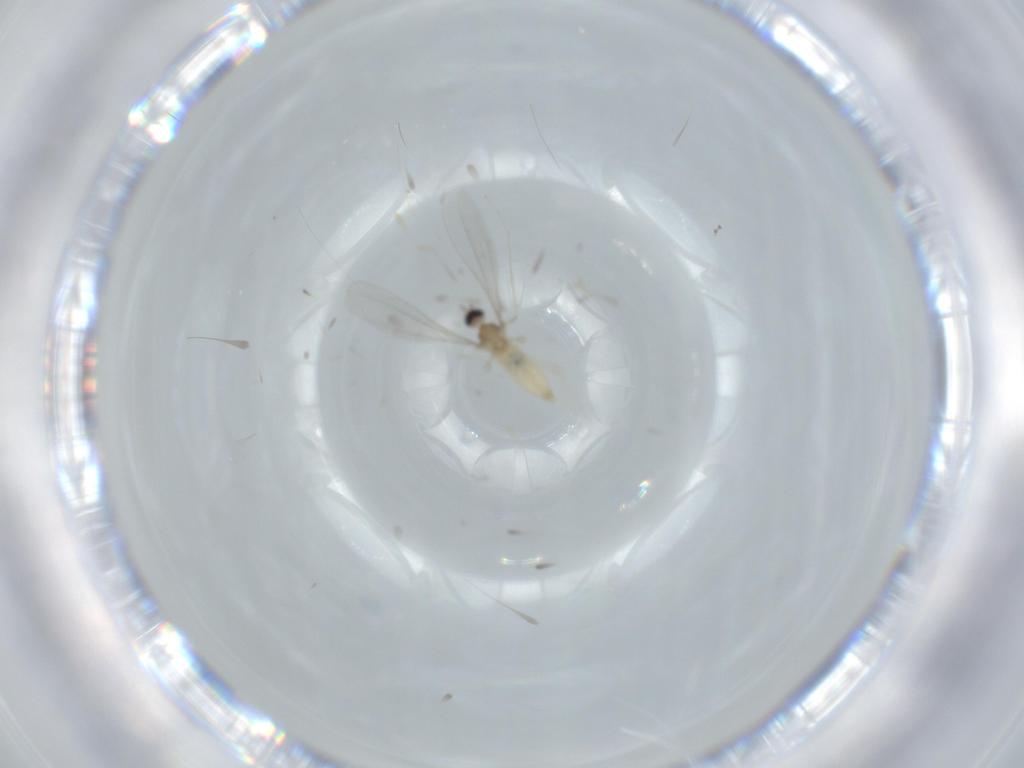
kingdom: Animalia
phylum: Arthropoda
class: Insecta
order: Diptera
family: Cecidomyiidae
